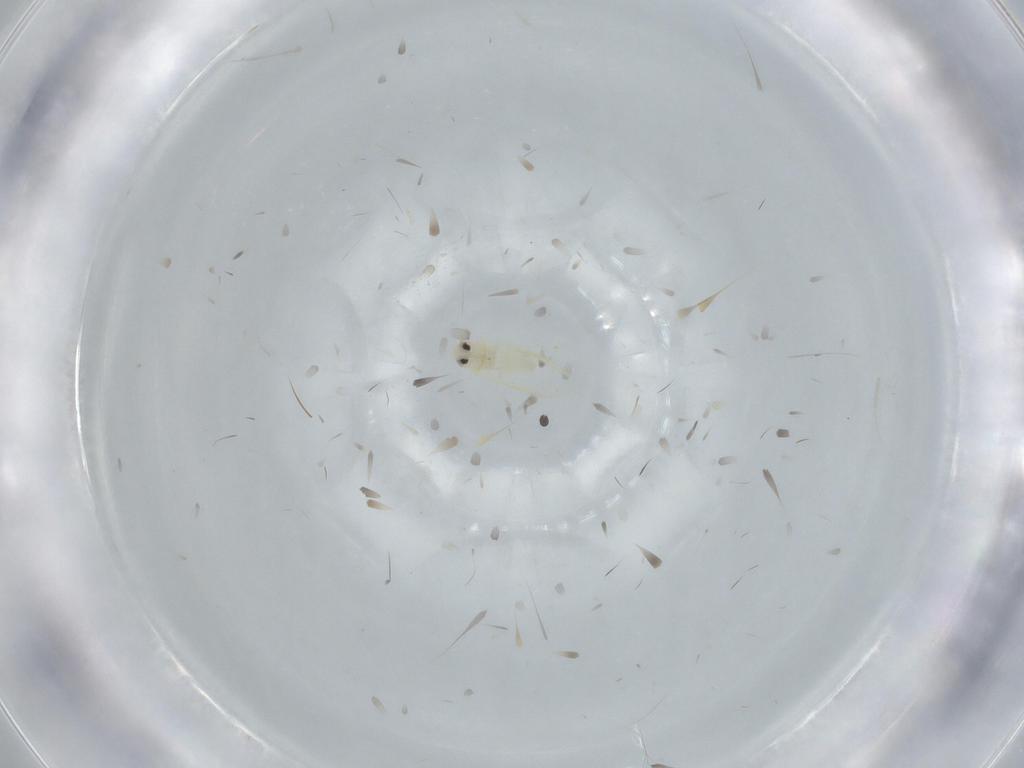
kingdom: Animalia
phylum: Arthropoda
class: Insecta
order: Hemiptera
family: Aleyrodidae
